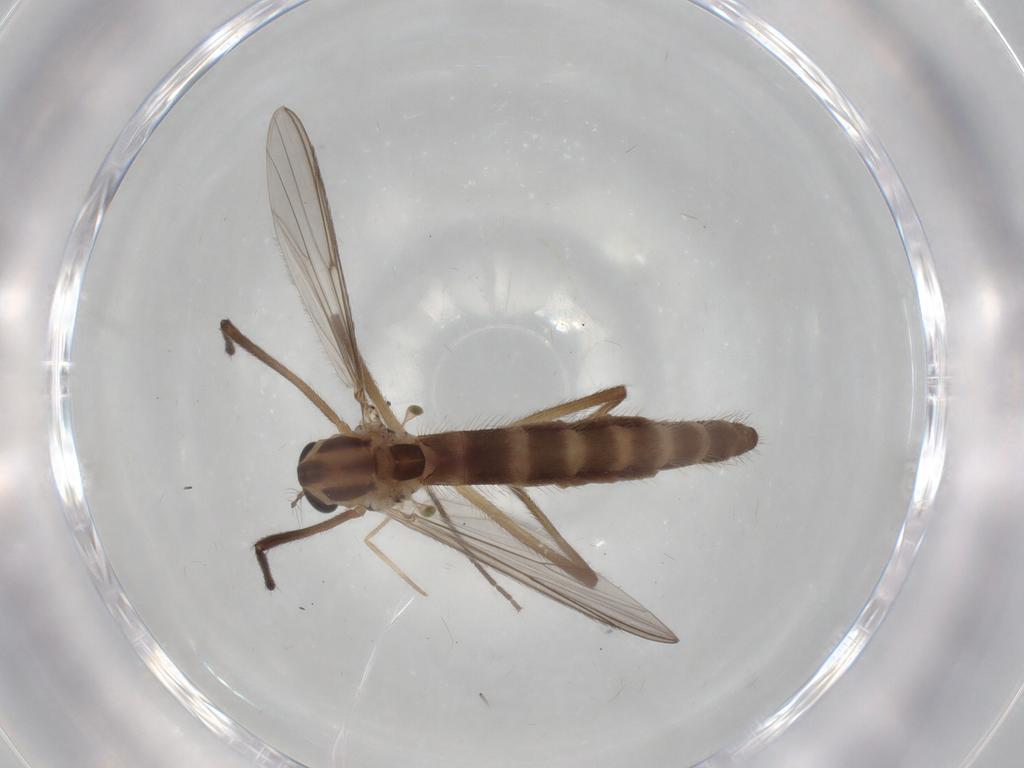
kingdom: Animalia
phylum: Arthropoda
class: Insecta
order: Diptera
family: Chironomidae
